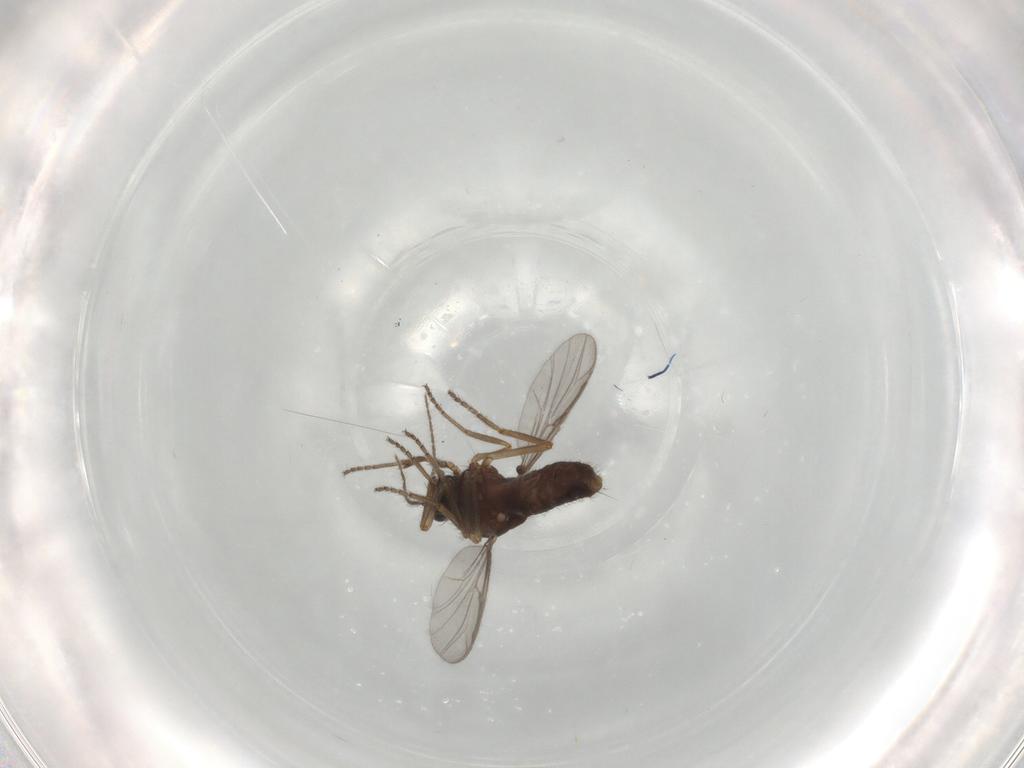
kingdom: Animalia
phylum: Arthropoda
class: Insecta
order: Diptera
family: Ceratopogonidae
